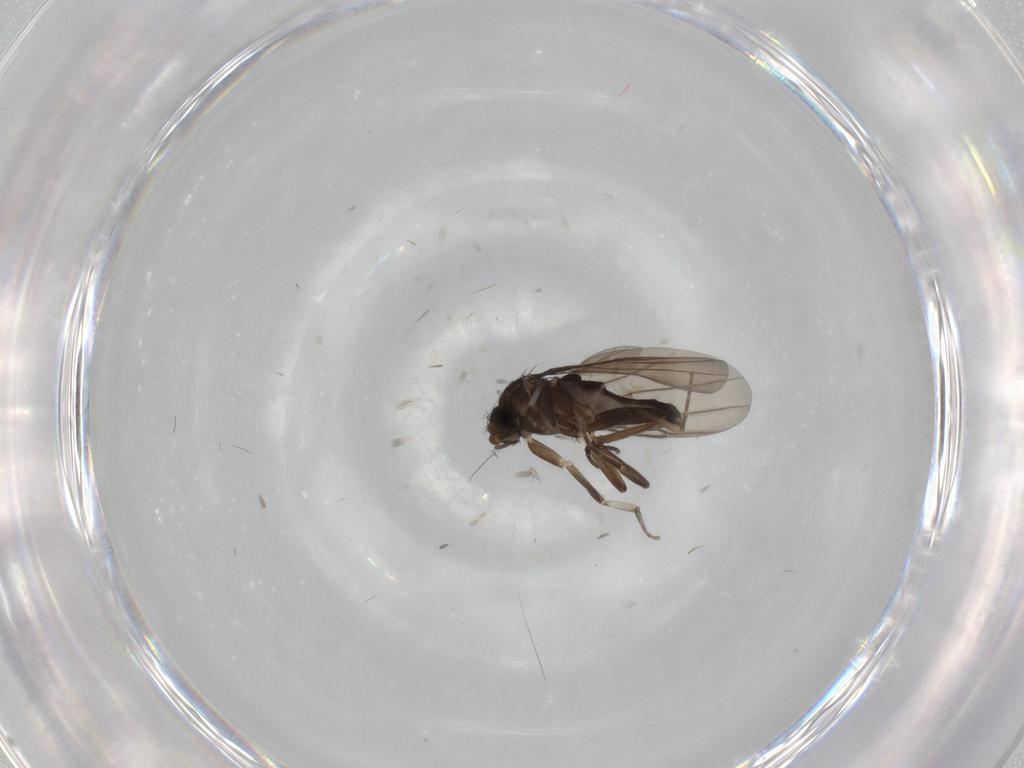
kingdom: Animalia
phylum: Arthropoda
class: Insecta
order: Diptera
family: Phoridae
